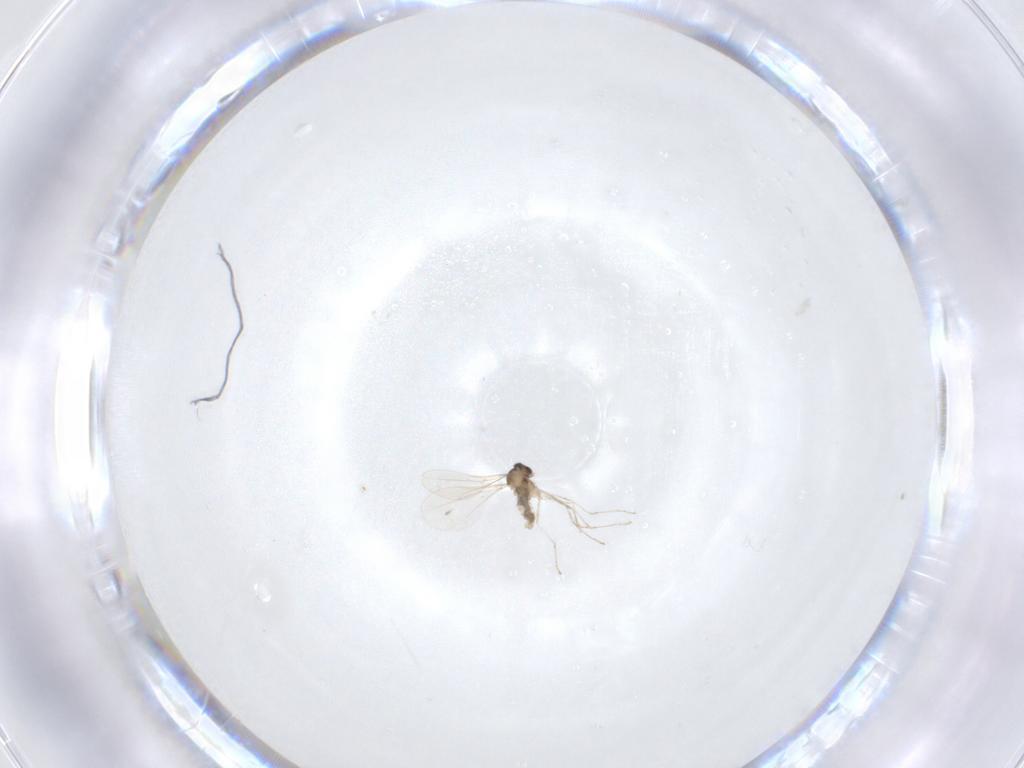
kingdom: Animalia
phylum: Arthropoda
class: Insecta
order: Diptera
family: Cecidomyiidae
